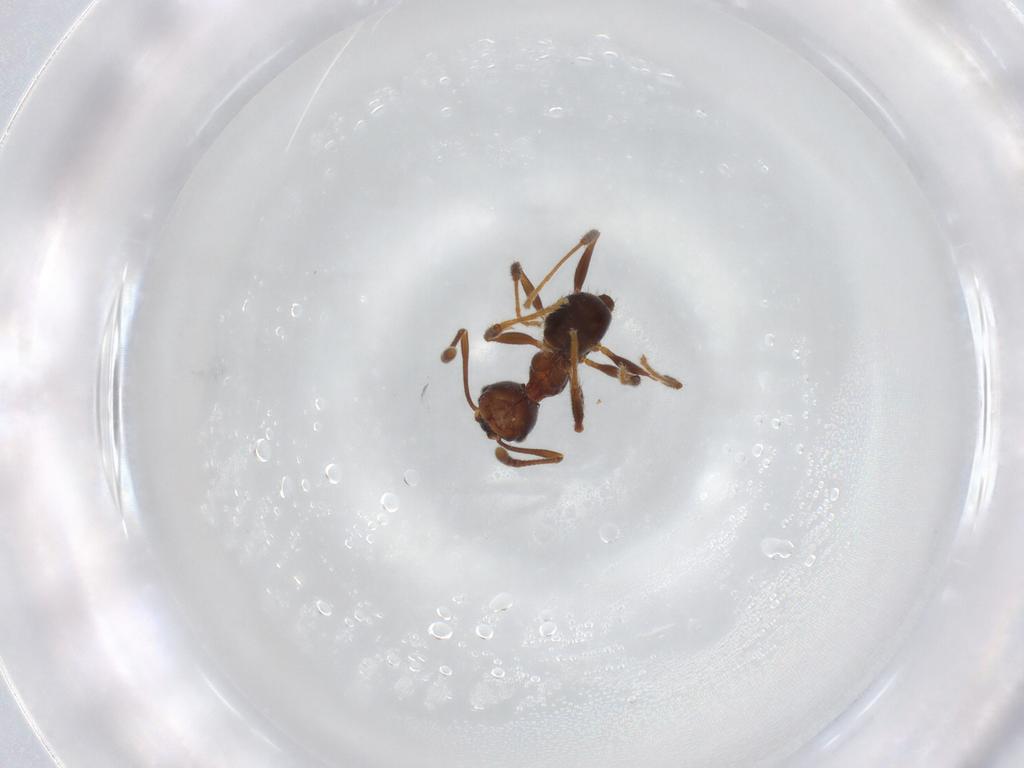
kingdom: Animalia
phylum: Arthropoda
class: Insecta
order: Hymenoptera
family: Formicidae
